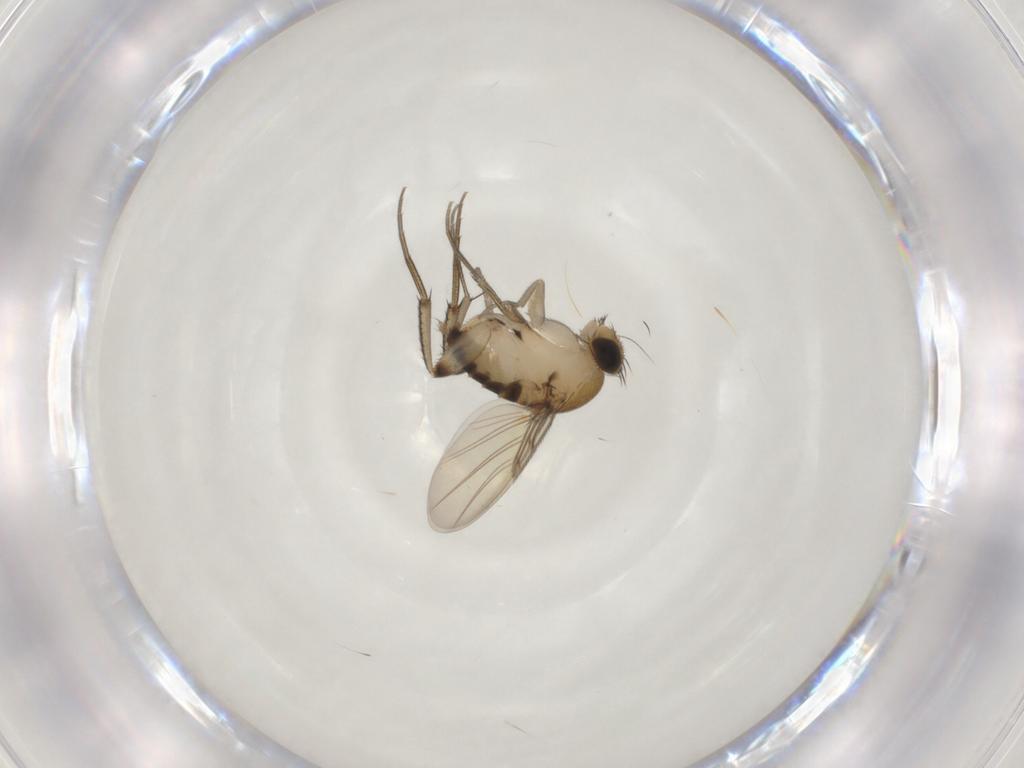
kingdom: Animalia
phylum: Arthropoda
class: Insecta
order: Diptera
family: Phoridae
